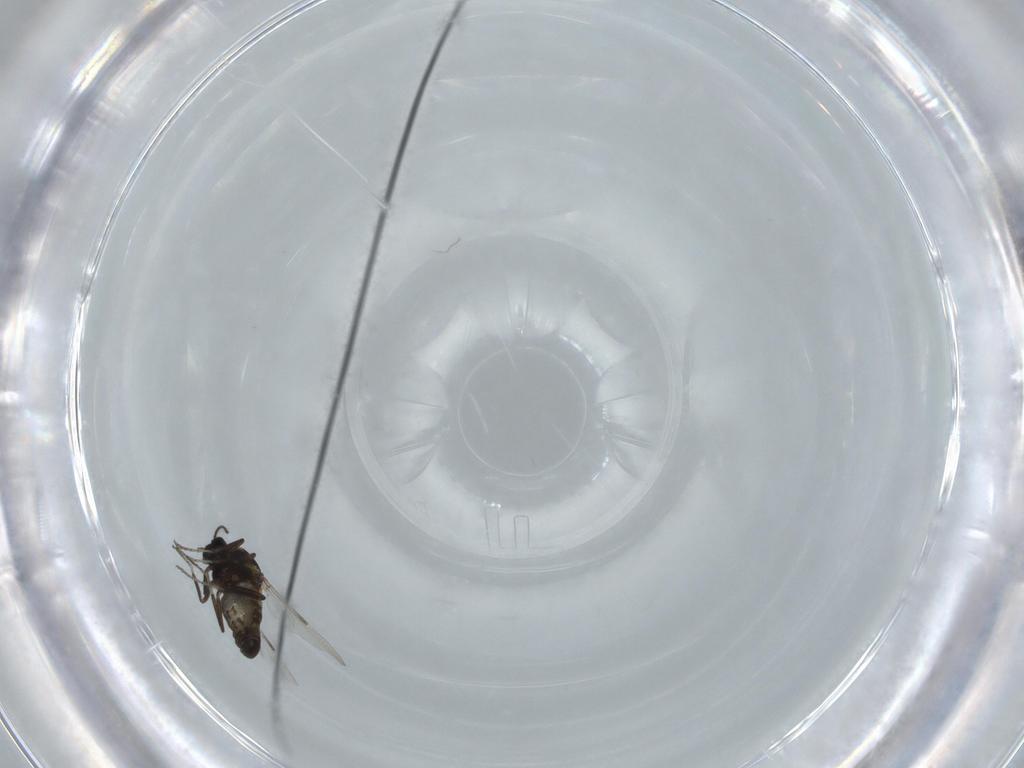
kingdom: Animalia
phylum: Arthropoda
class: Insecta
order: Diptera
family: Ceratopogonidae
